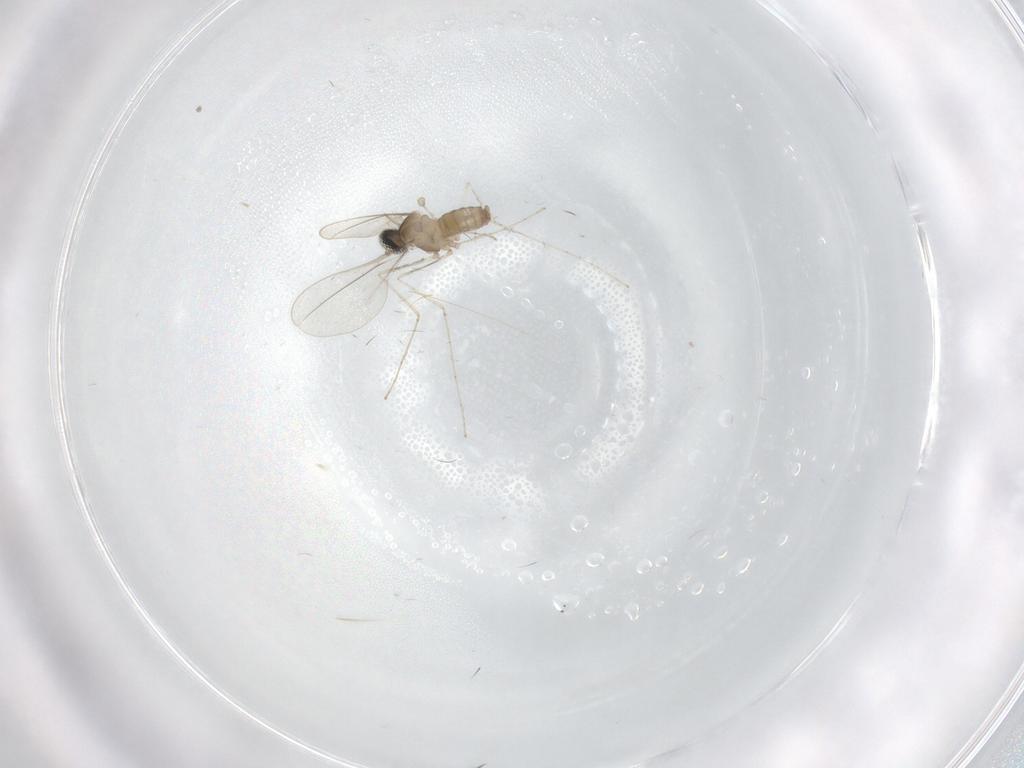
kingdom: Animalia
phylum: Arthropoda
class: Insecta
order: Diptera
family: Cecidomyiidae
